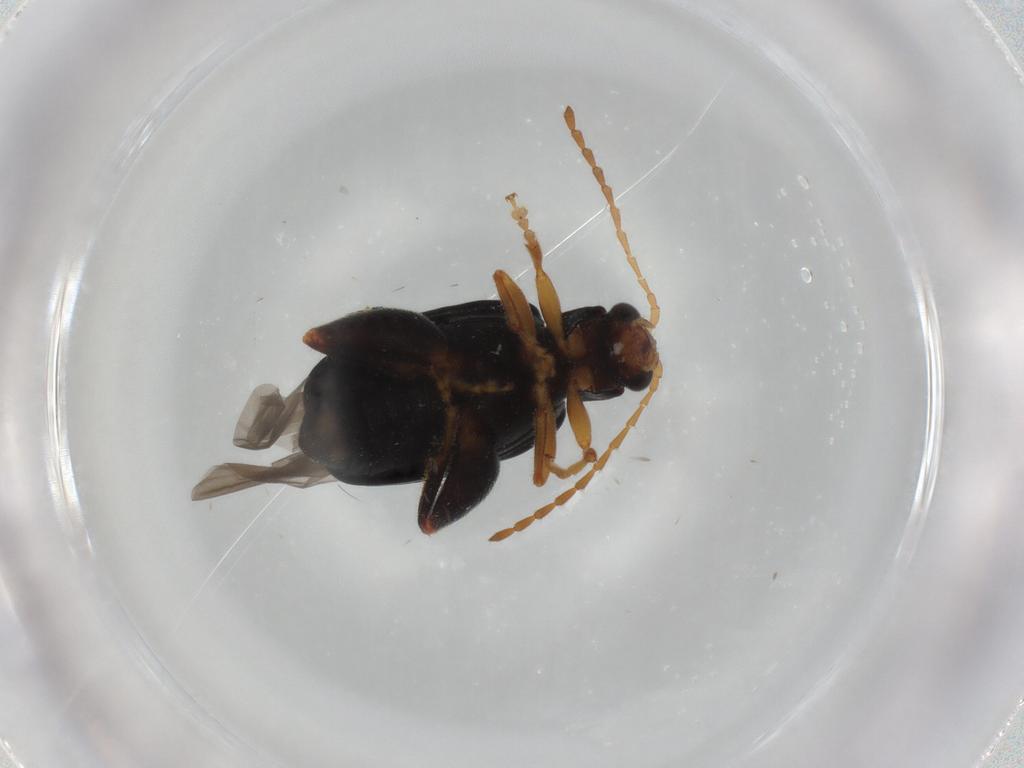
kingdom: Animalia
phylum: Arthropoda
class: Insecta
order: Coleoptera
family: Chrysomelidae
